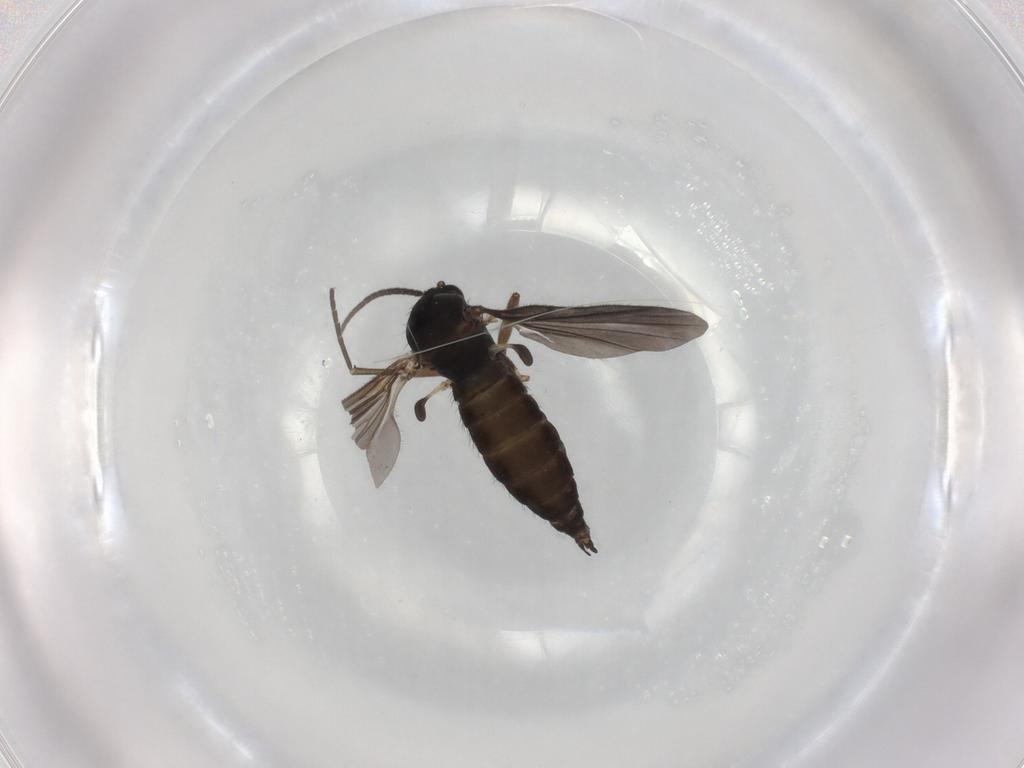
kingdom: Animalia
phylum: Arthropoda
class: Insecta
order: Diptera
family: Sciaridae
